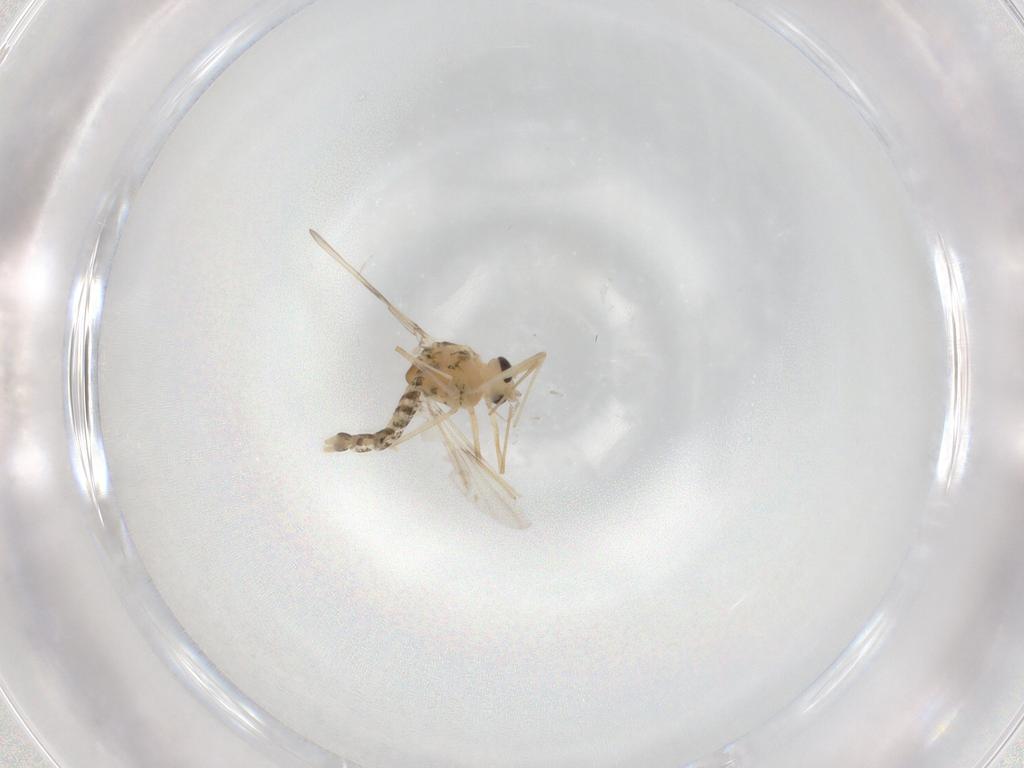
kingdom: Animalia
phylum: Arthropoda
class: Insecta
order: Diptera
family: Chironomidae
